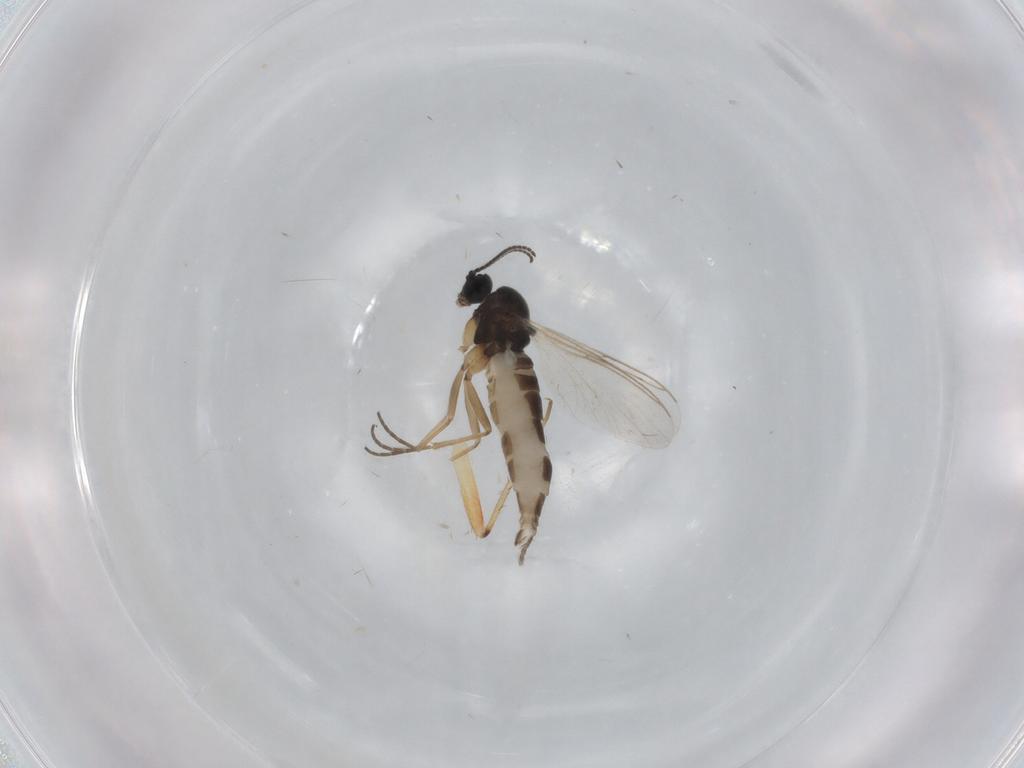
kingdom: Animalia
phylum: Arthropoda
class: Insecta
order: Diptera
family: Sciaridae
